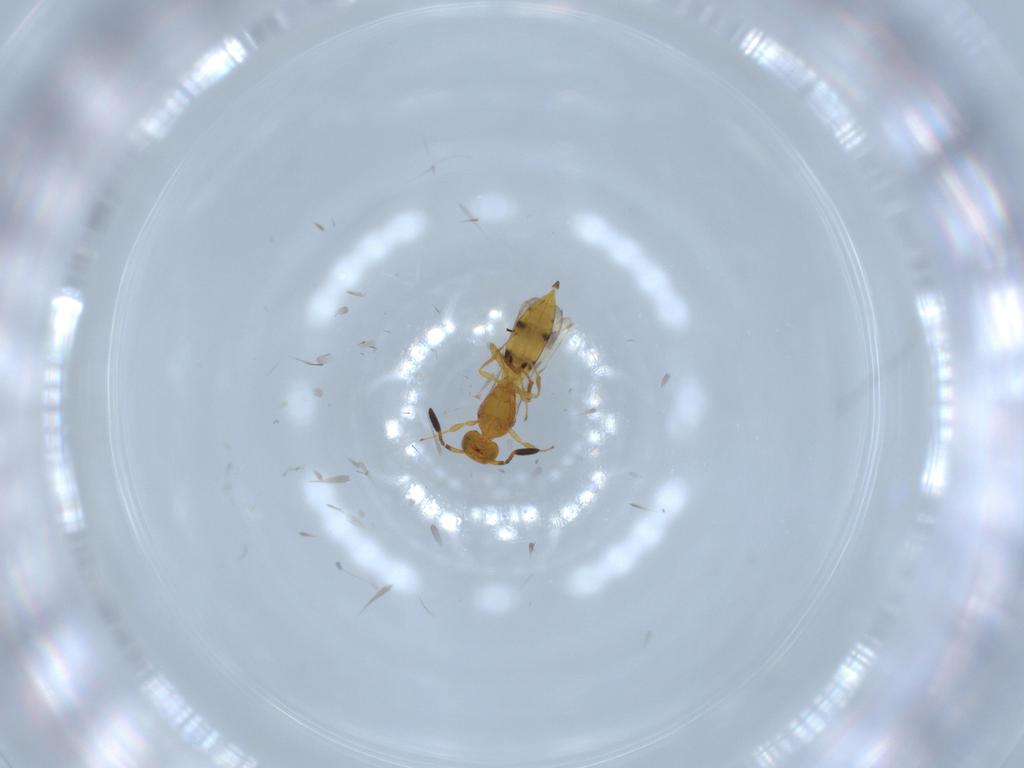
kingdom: Animalia
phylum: Arthropoda
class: Insecta
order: Hymenoptera
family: Scelionidae
